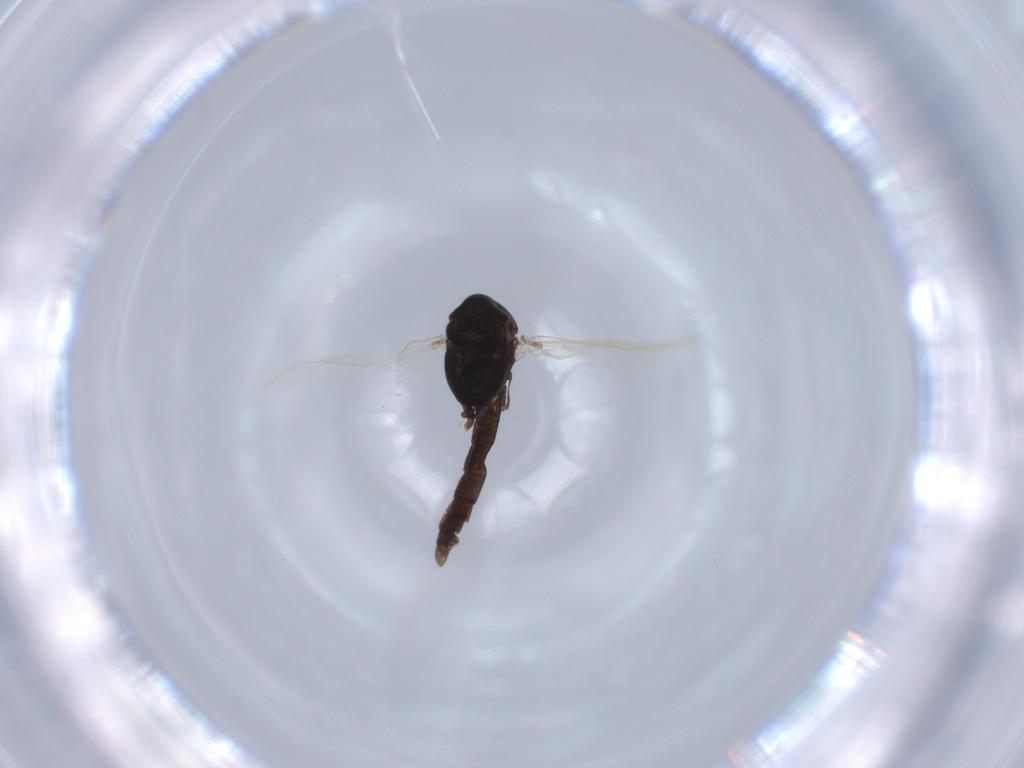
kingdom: Animalia
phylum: Arthropoda
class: Insecta
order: Diptera
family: Chironomidae
